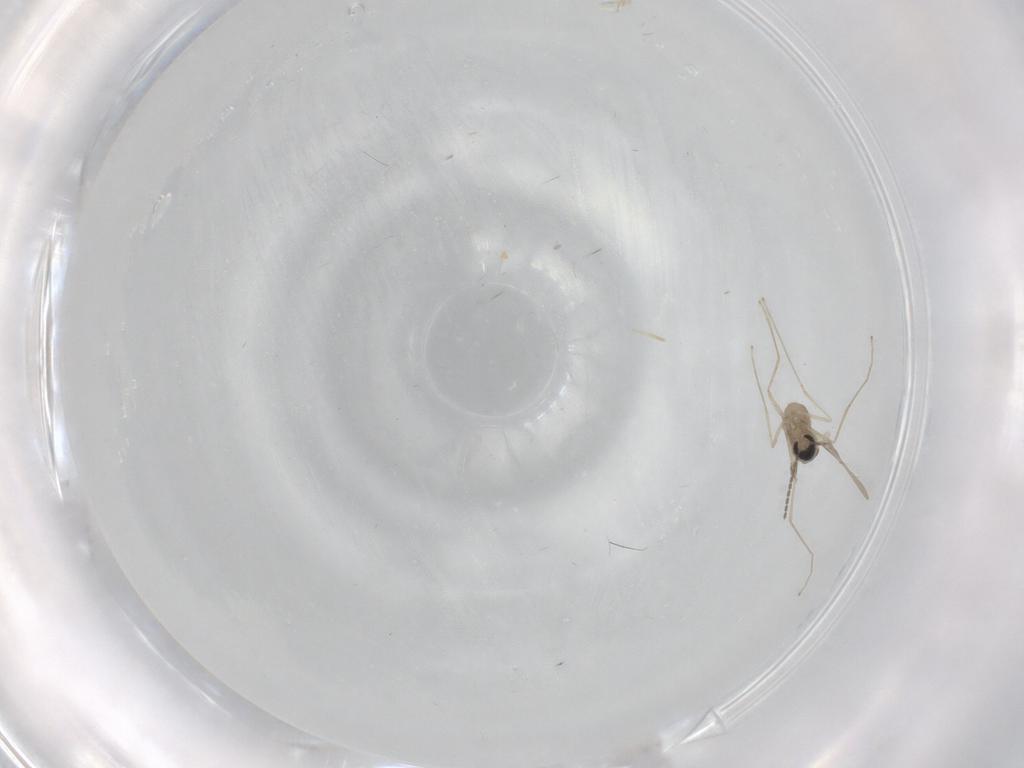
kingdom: Animalia
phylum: Arthropoda
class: Insecta
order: Diptera
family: Cecidomyiidae
